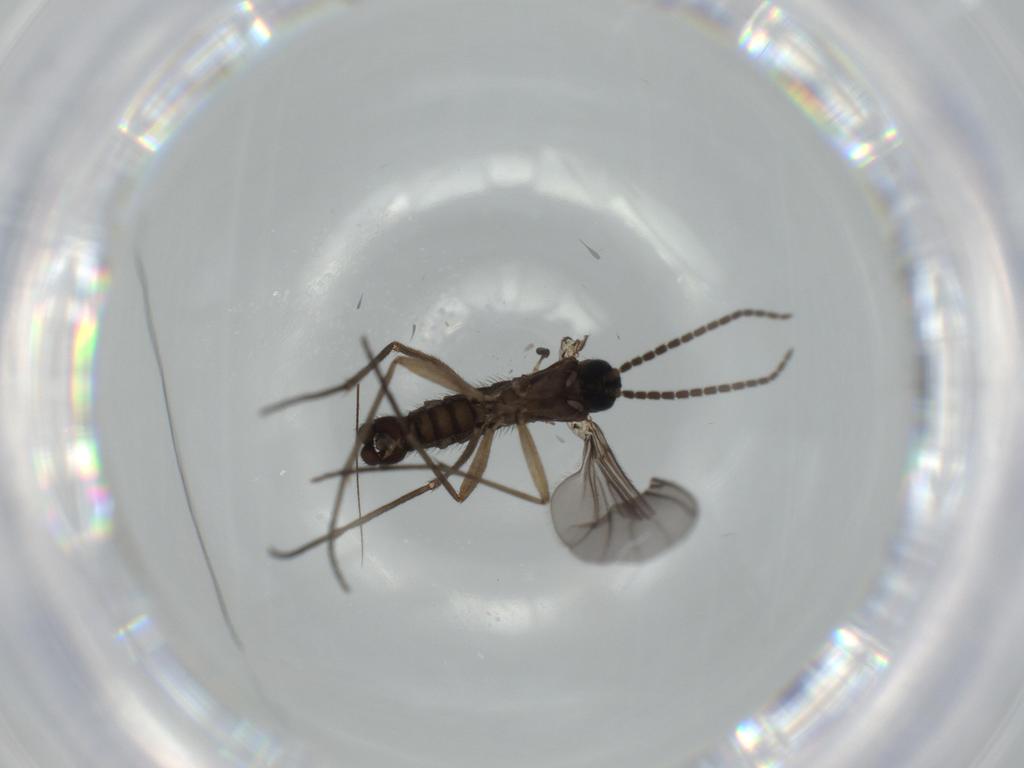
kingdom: Animalia
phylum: Arthropoda
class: Insecta
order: Diptera
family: Sciaridae
